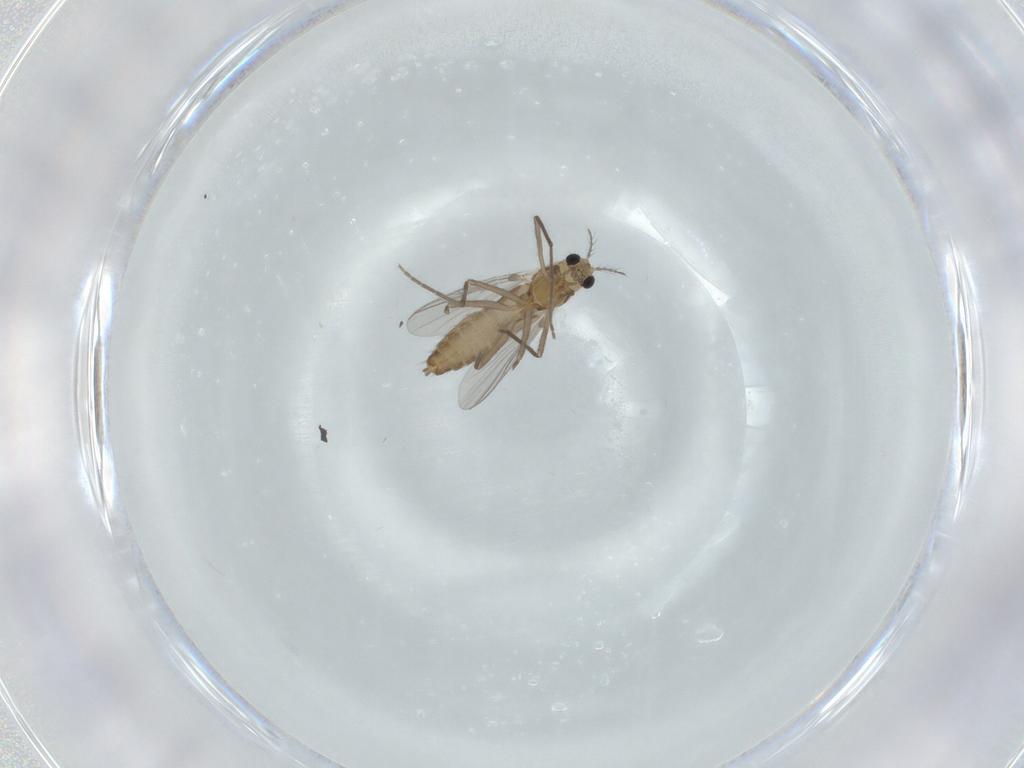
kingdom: Animalia
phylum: Arthropoda
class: Insecta
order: Diptera
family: Chironomidae
